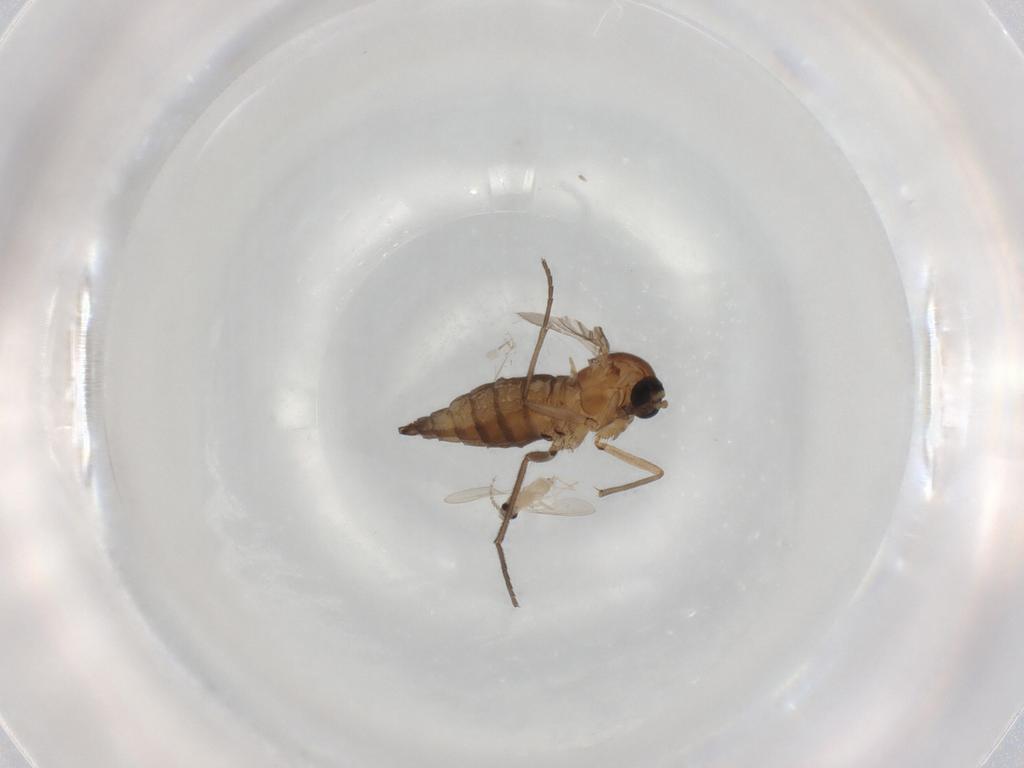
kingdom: Animalia
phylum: Arthropoda
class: Insecta
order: Diptera
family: Sciaridae
